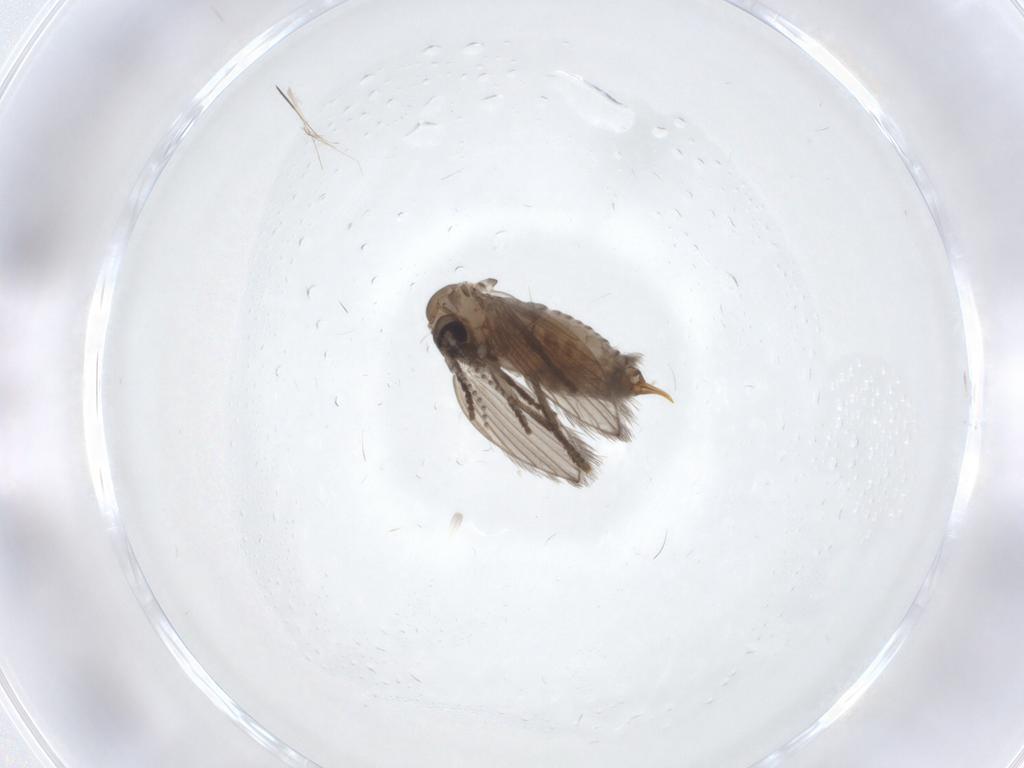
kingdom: Animalia
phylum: Arthropoda
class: Insecta
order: Diptera
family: Psychodidae
